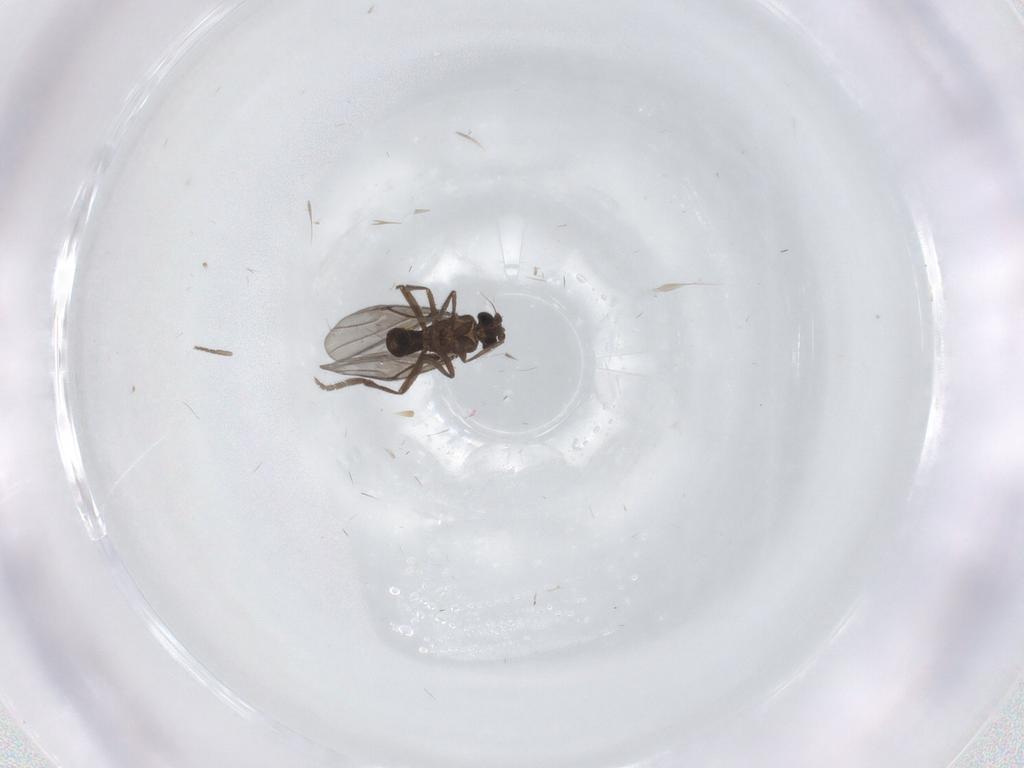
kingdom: Animalia
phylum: Arthropoda
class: Insecta
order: Diptera
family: Phoridae
